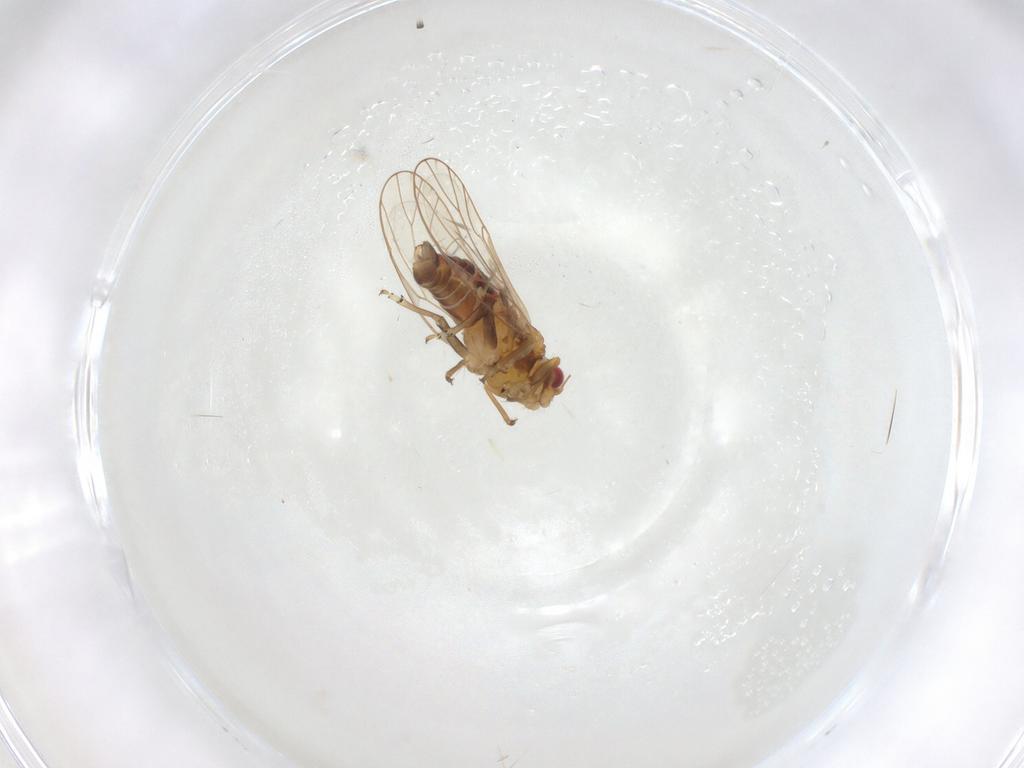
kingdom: Animalia
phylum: Arthropoda
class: Insecta
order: Hemiptera
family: Psyllidae
